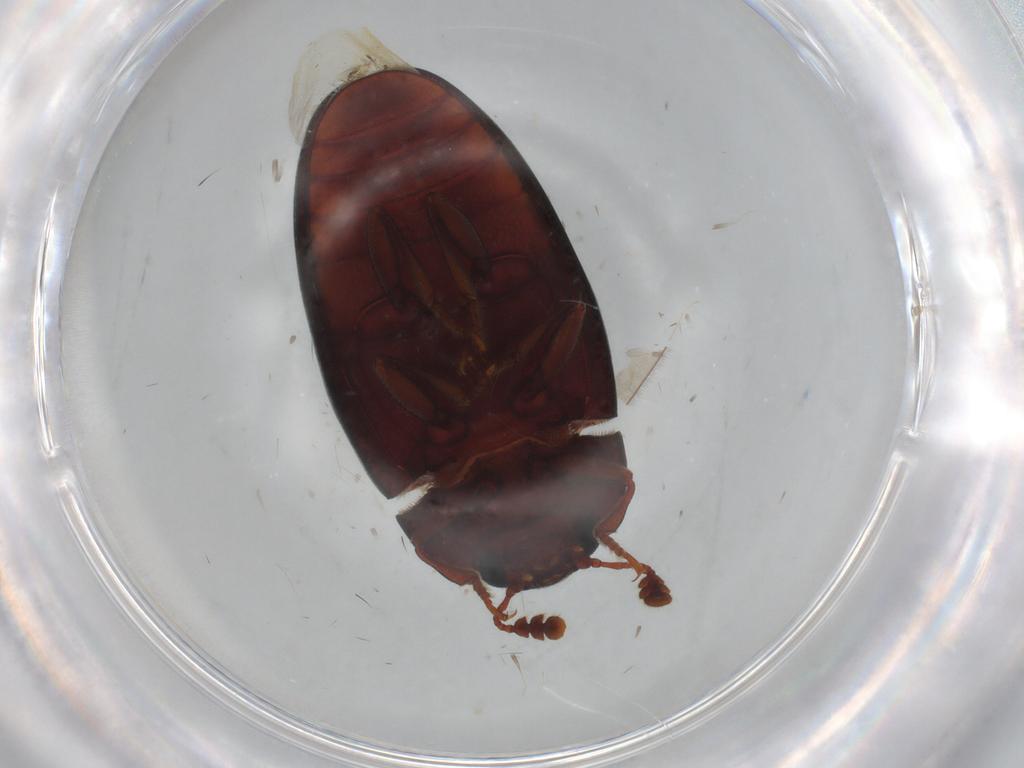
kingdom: Animalia
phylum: Arthropoda
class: Insecta
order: Coleoptera
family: Erotylidae
